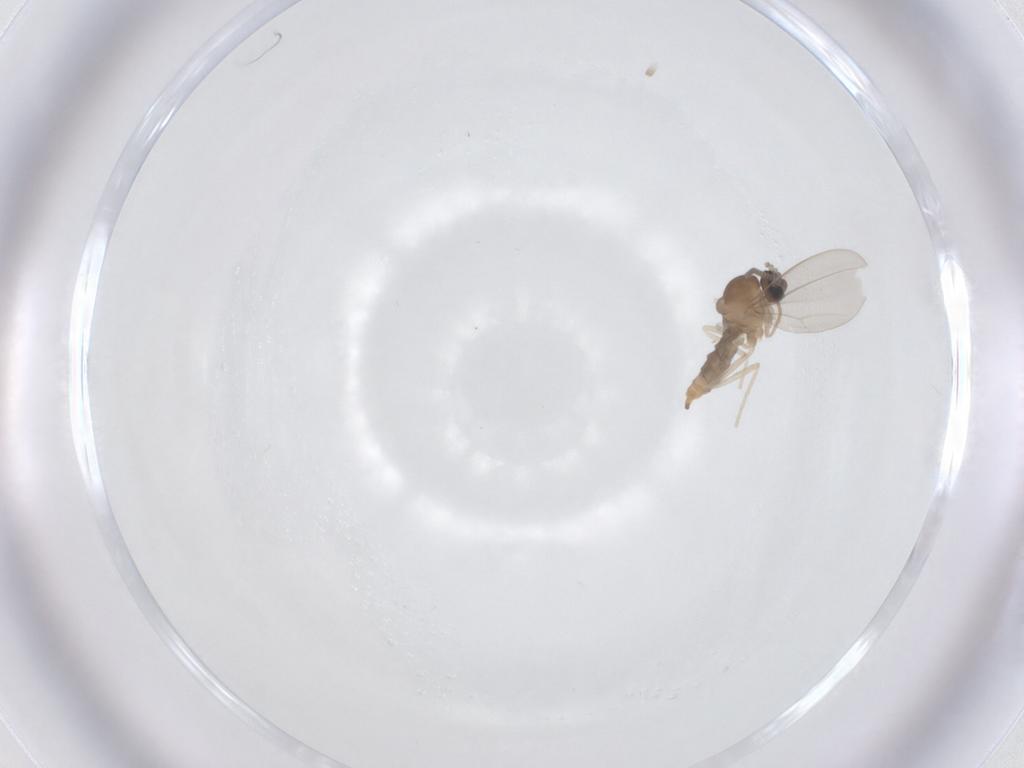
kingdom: Animalia
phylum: Arthropoda
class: Insecta
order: Diptera
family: Cecidomyiidae
